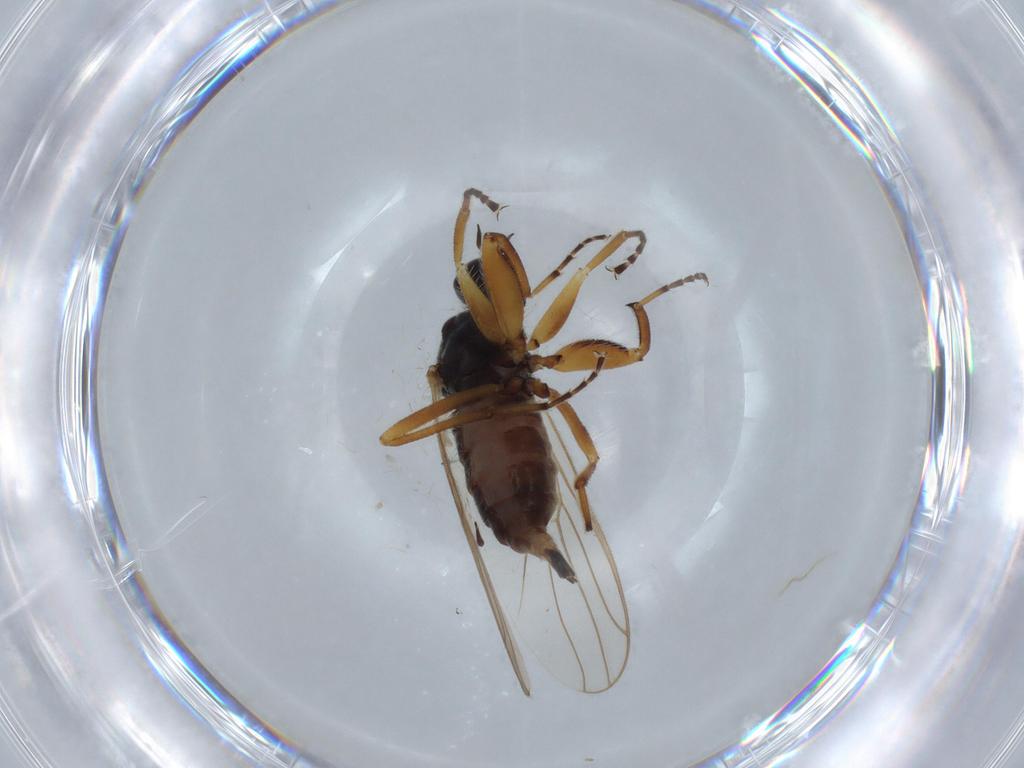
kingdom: Animalia
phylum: Arthropoda
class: Insecta
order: Diptera
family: Hybotidae
